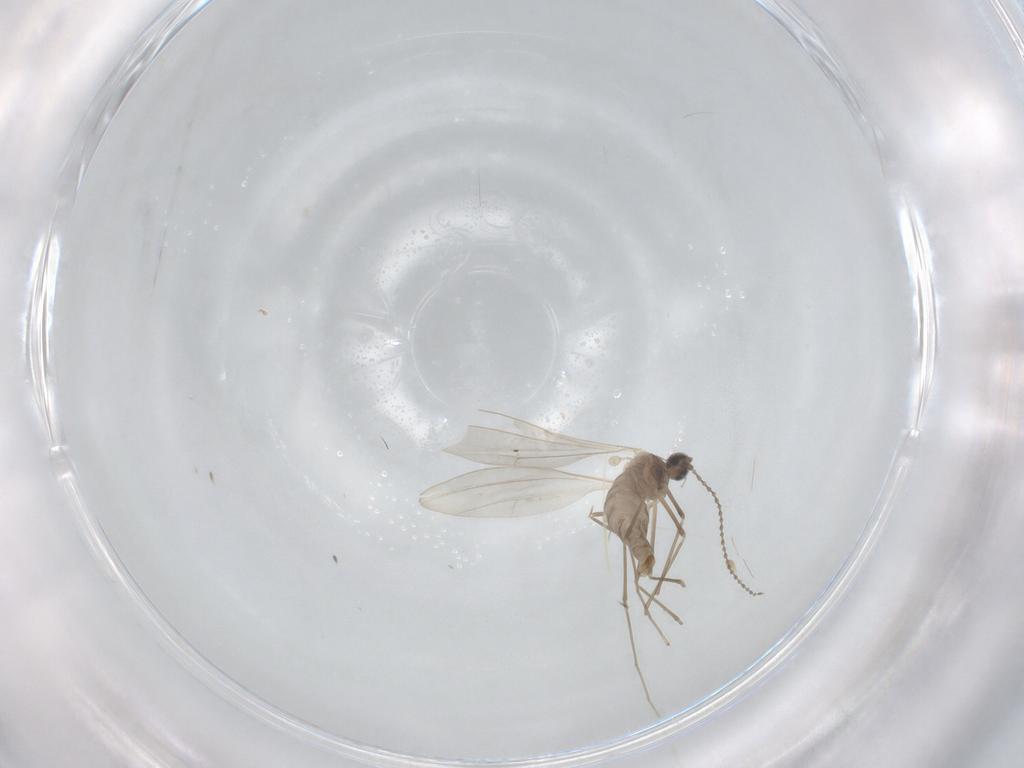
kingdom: Animalia
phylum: Arthropoda
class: Insecta
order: Diptera
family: Cecidomyiidae
